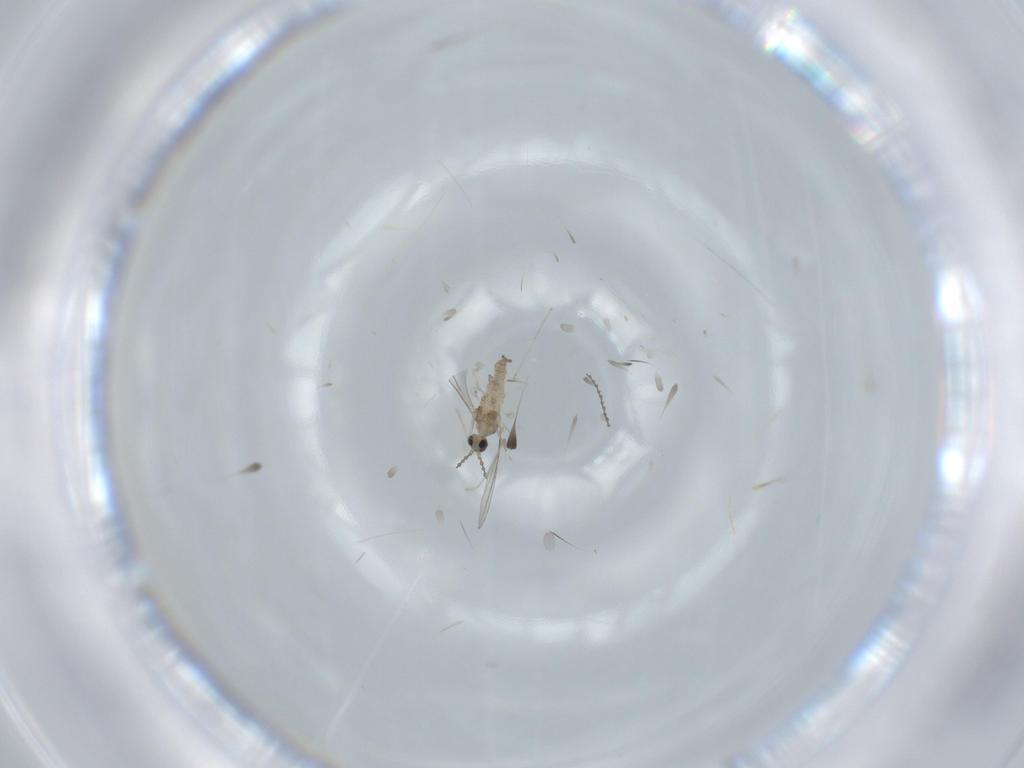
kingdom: Animalia
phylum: Arthropoda
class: Insecta
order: Diptera
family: Cecidomyiidae
